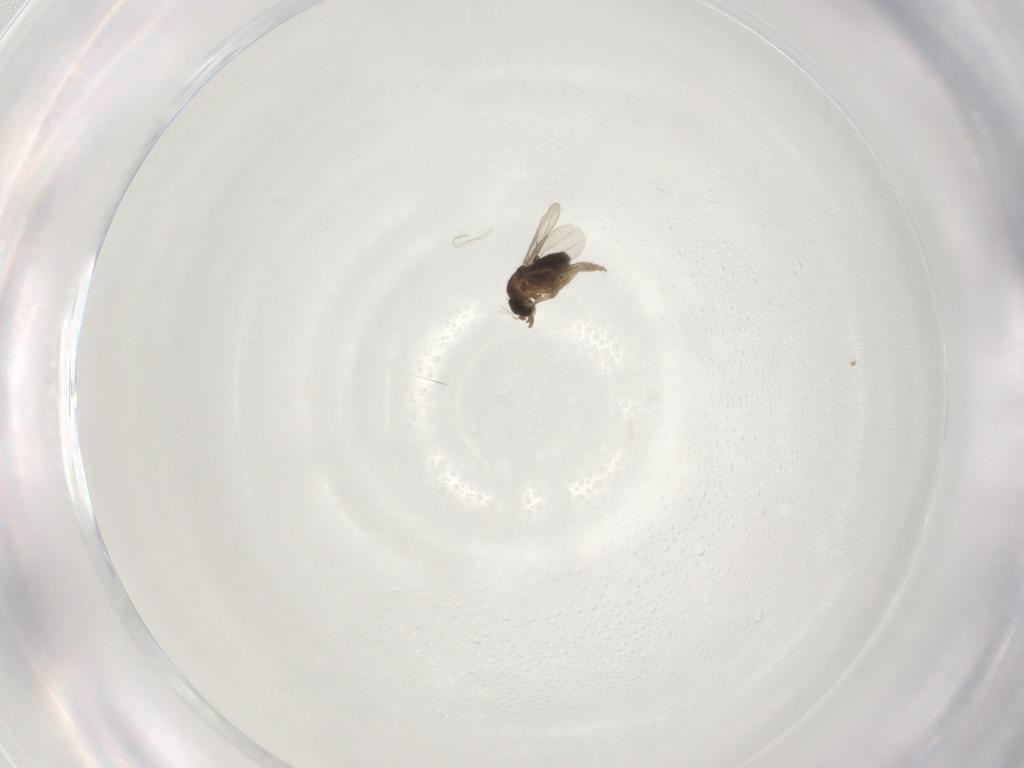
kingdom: Animalia
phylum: Arthropoda
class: Insecta
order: Diptera
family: Phoridae
